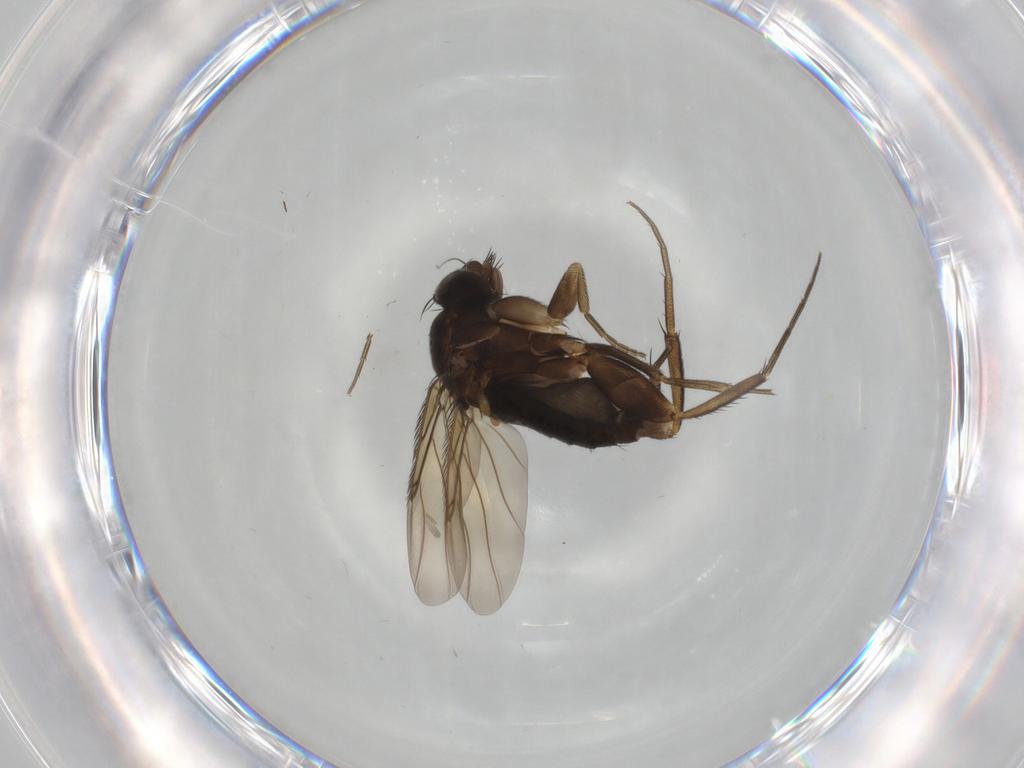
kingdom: Animalia
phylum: Arthropoda
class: Insecta
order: Diptera
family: Phoridae
